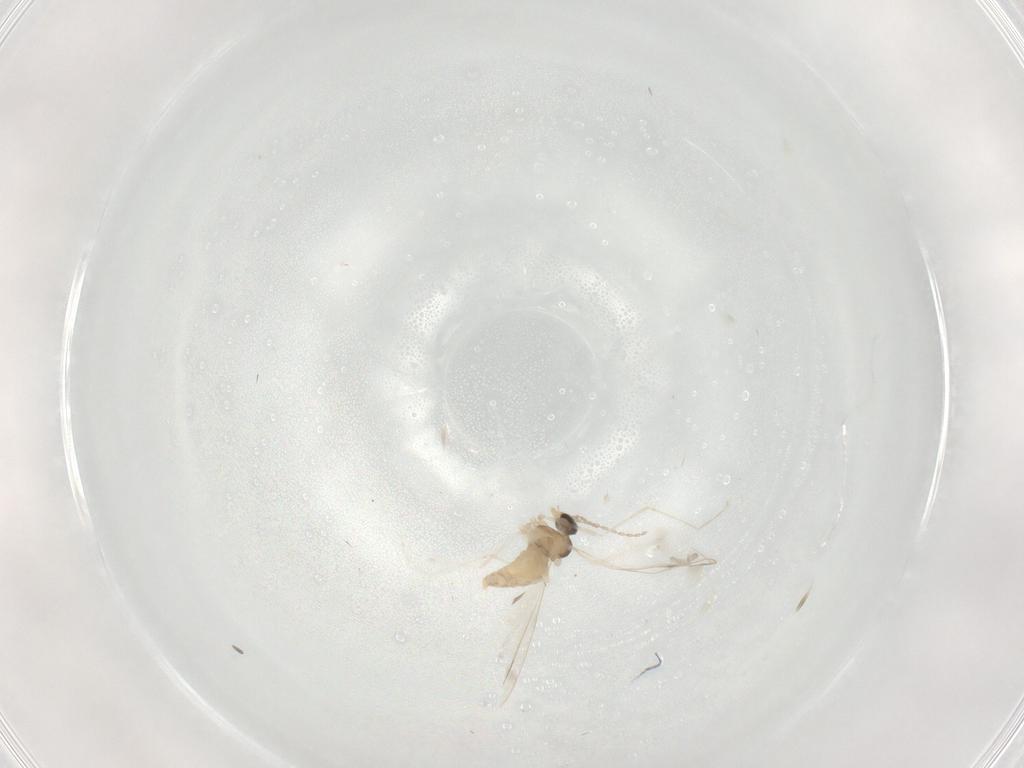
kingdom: Animalia
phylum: Arthropoda
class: Insecta
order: Diptera
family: Cecidomyiidae
